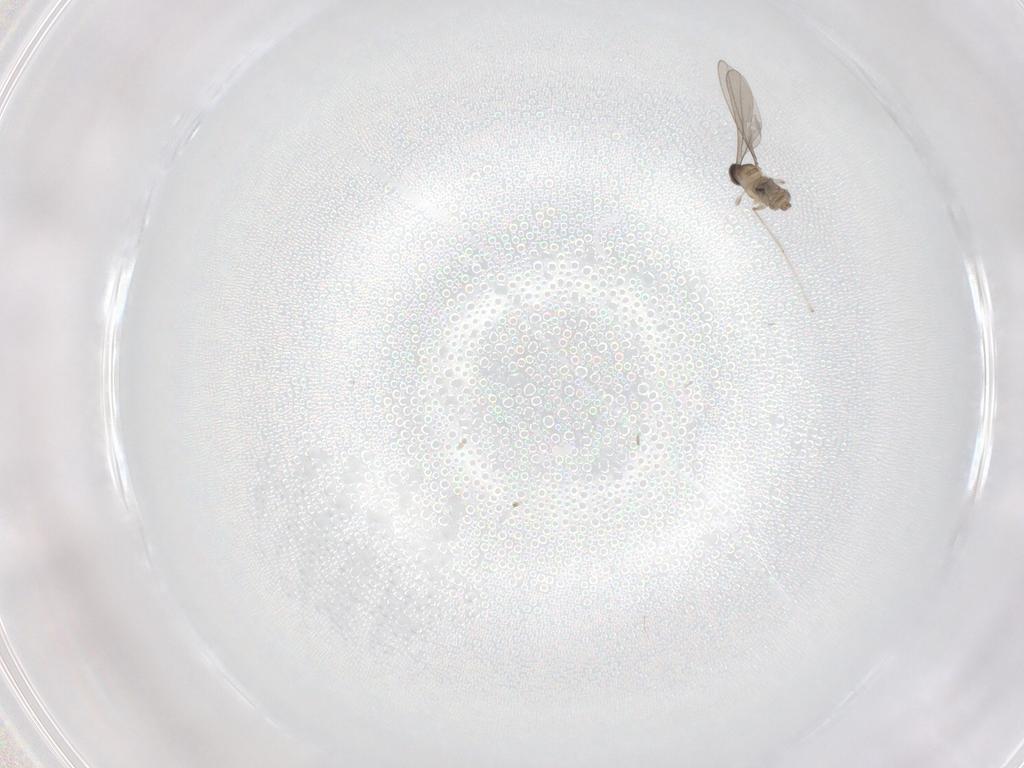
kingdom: Animalia
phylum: Arthropoda
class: Insecta
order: Diptera
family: Cecidomyiidae
